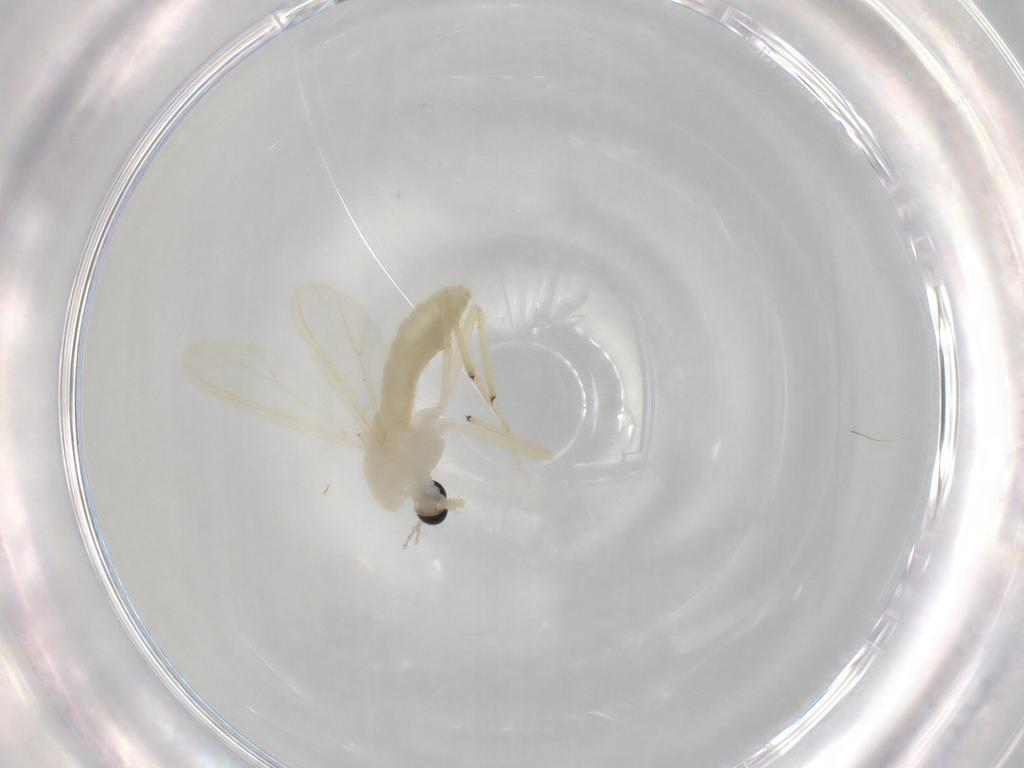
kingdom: Animalia
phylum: Arthropoda
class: Insecta
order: Diptera
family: Chironomidae
